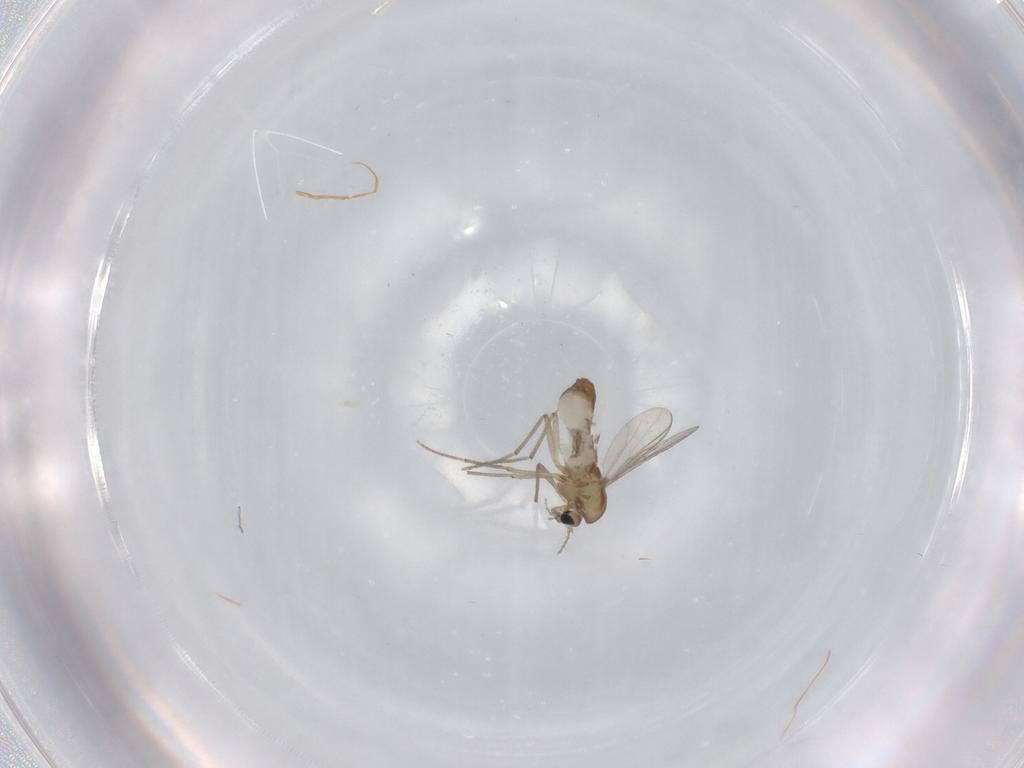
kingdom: Animalia
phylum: Arthropoda
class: Insecta
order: Diptera
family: Chironomidae
